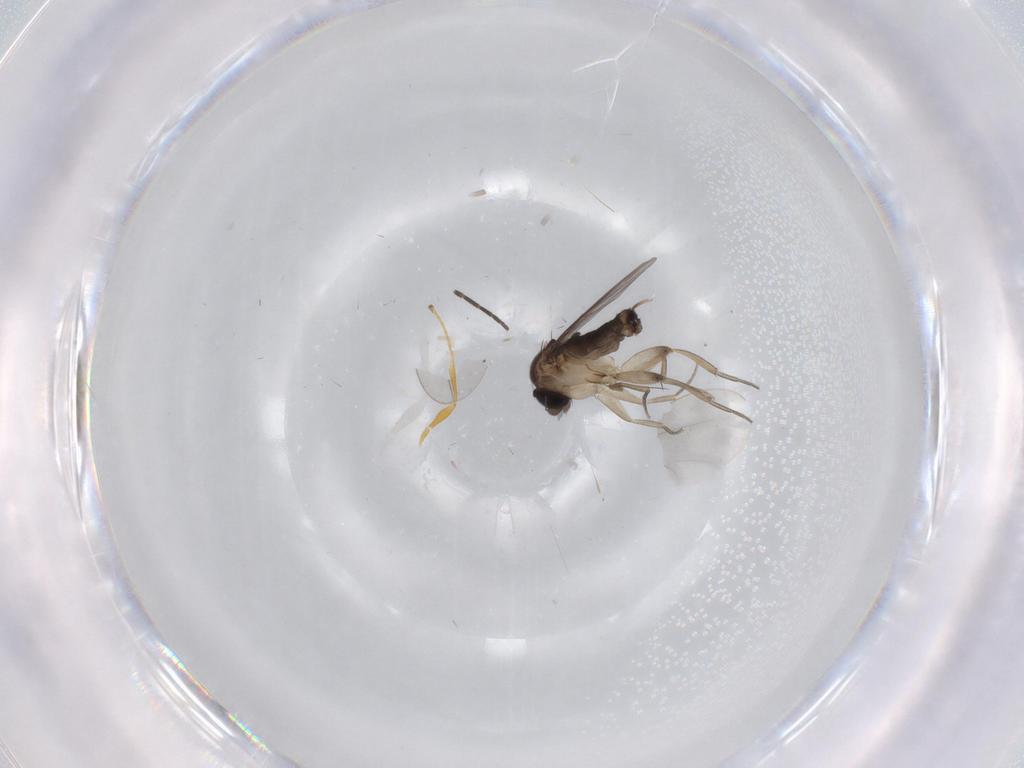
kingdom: Animalia
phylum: Arthropoda
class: Insecta
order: Diptera
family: Phoridae
